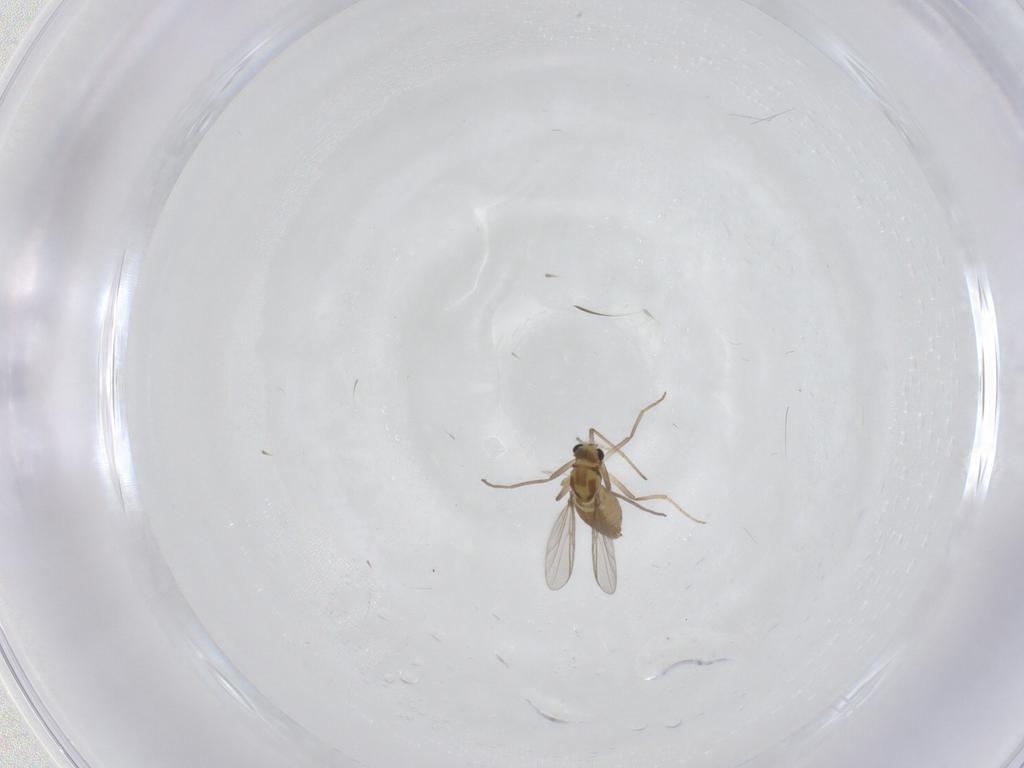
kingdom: Animalia
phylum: Arthropoda
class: Insecta
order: Diptera
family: Chironomidae
